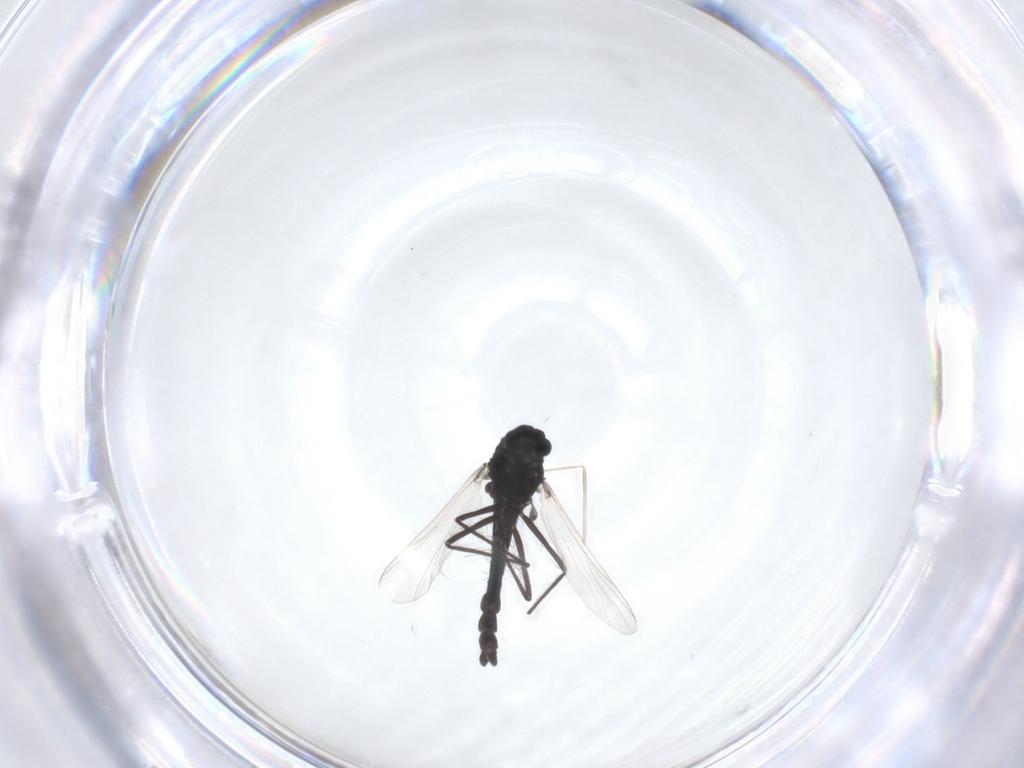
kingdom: Animalia
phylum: Arthropoda
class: Insecta
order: Diptera
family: Chironomidae
